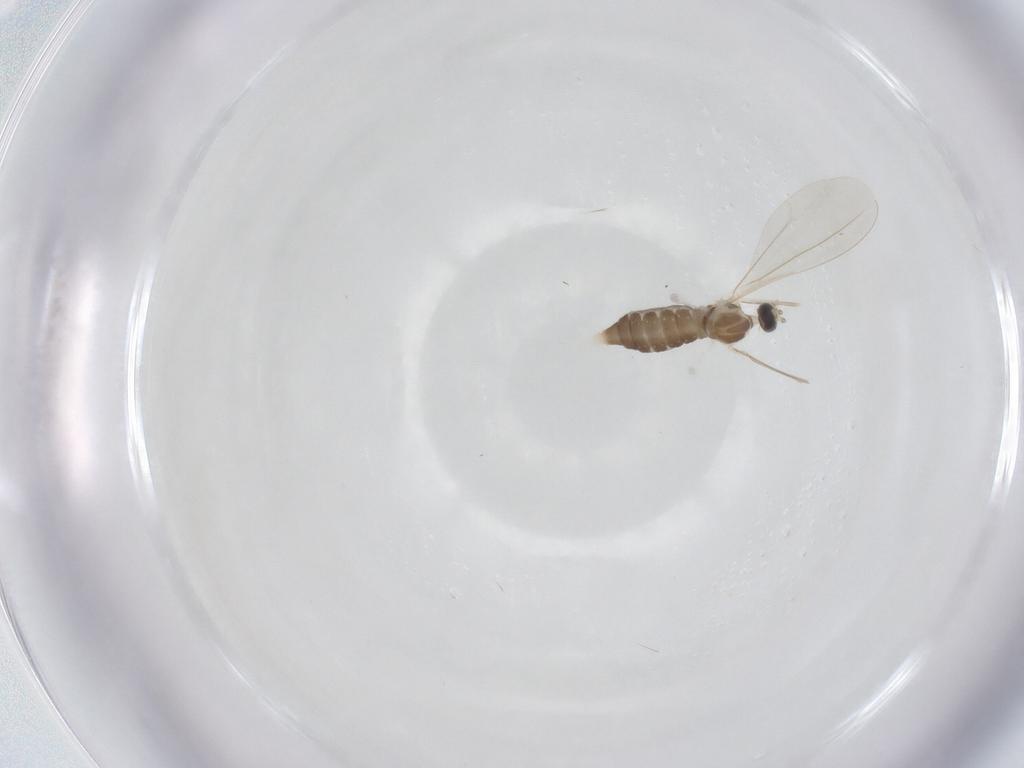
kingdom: Animalia
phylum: Arthropoda
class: Insecta
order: Diptera
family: Cecidomyiidae
